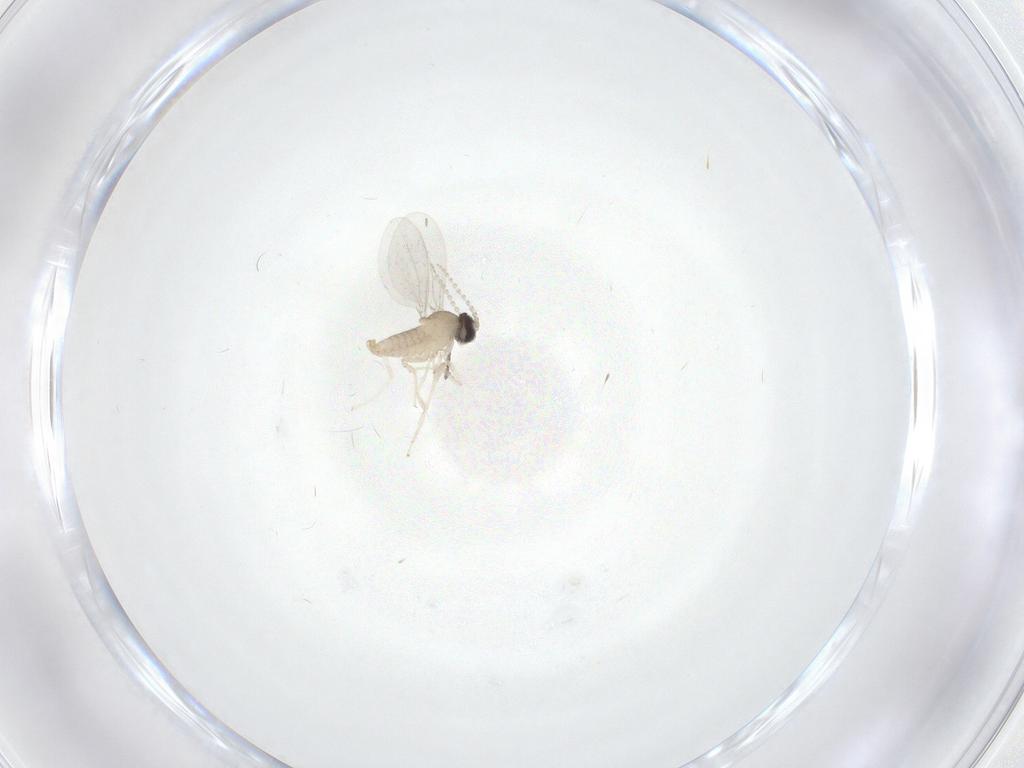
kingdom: Animalia
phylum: Arthropoda
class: Insecta
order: Diptera
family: Cecidomyiidae
